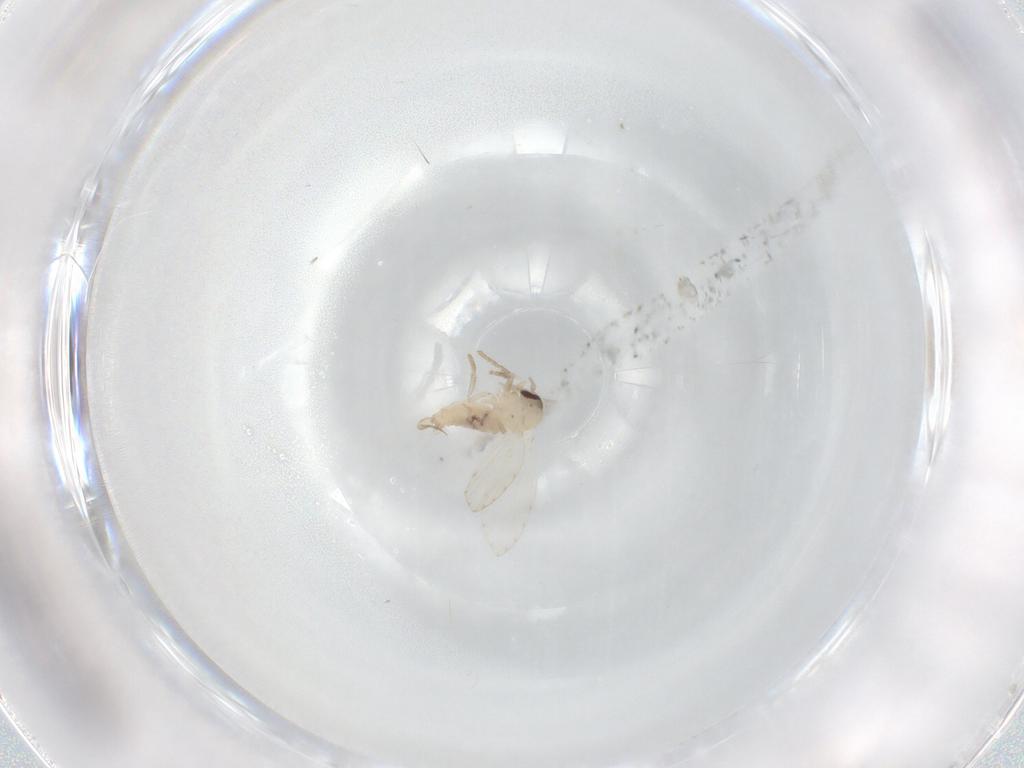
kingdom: Animalia
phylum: Arthropoda
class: Insecta
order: Diptera
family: Psychodidae
